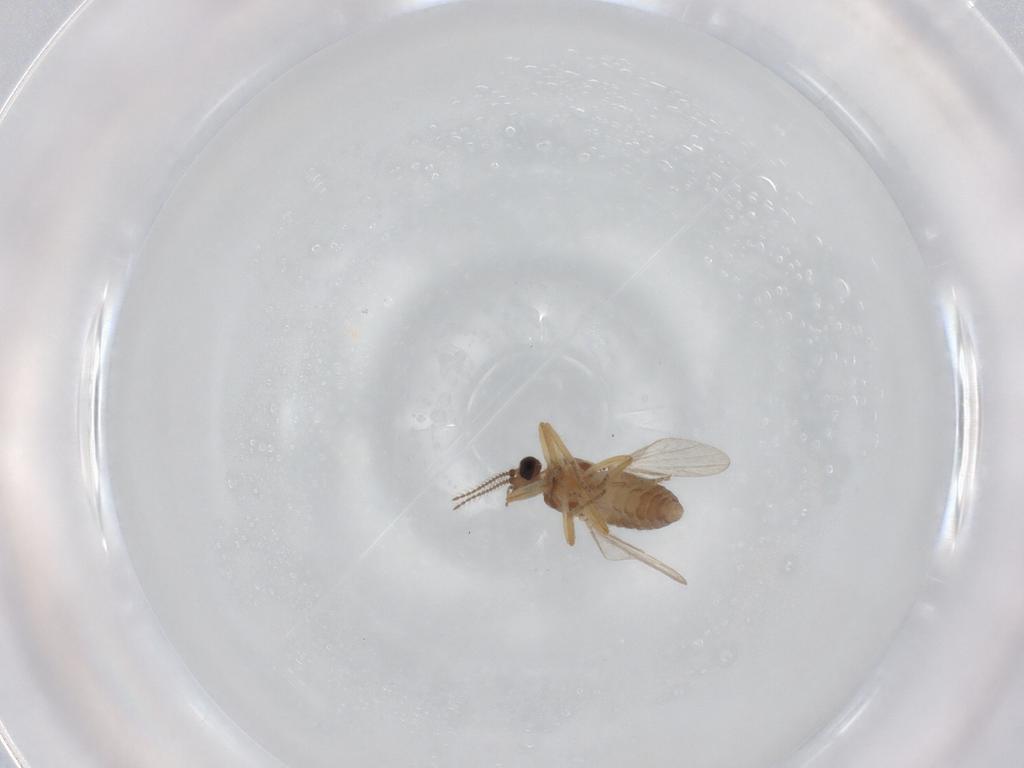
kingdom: Animalia
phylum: Arthropoda
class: Insecta
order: Diptera
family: Ceratopogonidae
